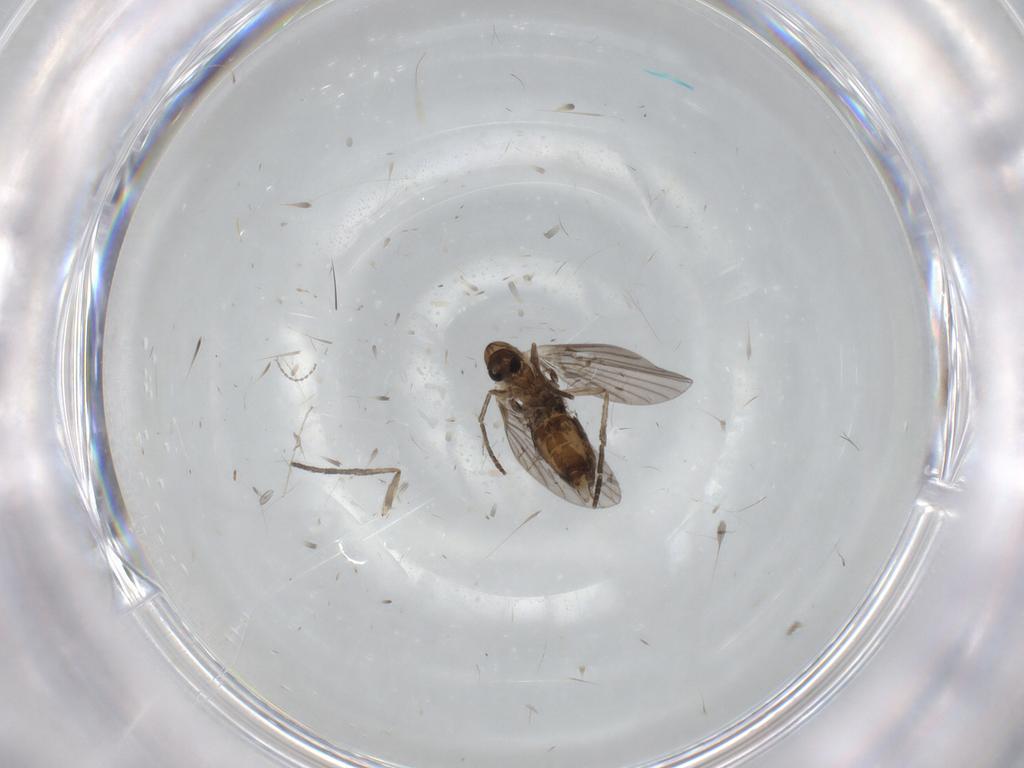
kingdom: Animalia
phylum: Arthropoda
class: Insecta
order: Diptera
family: Psychodidae
